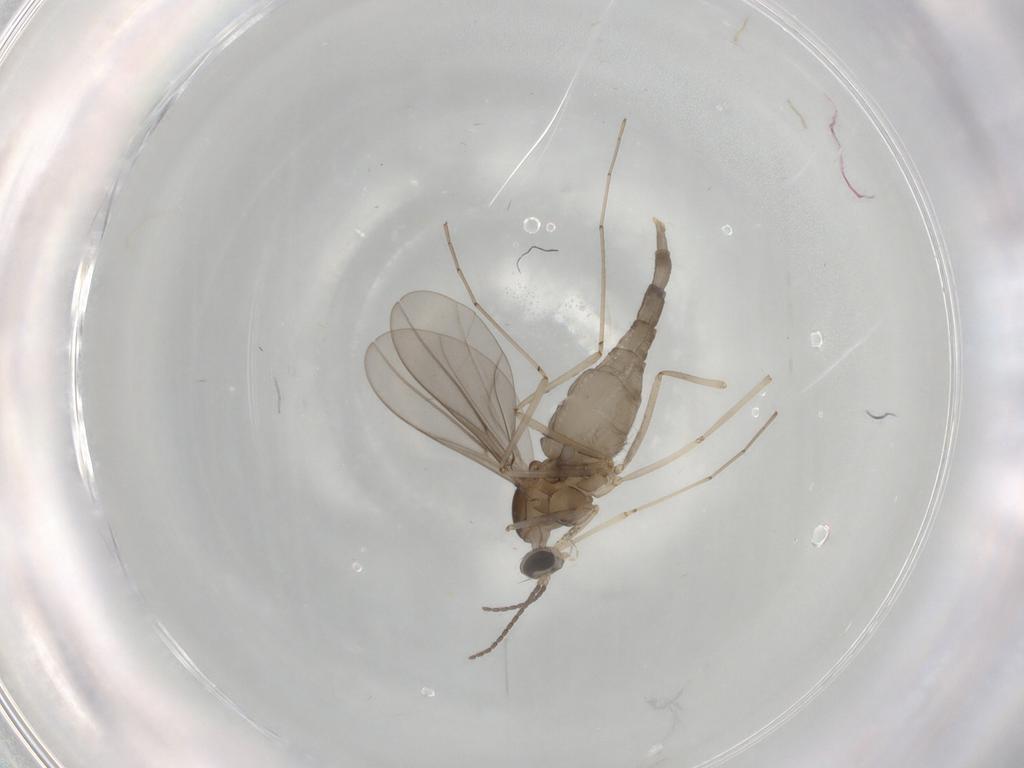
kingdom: Animalia
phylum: Arthropoda
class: Insecta
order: Diptera
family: Cecidomyiidae
